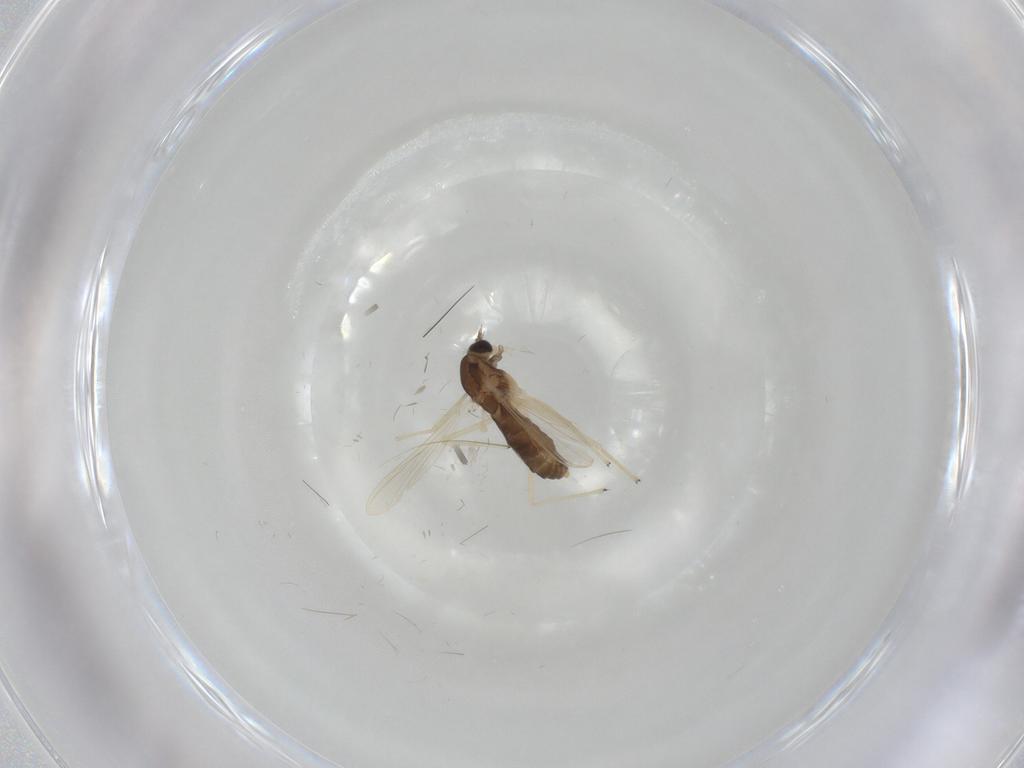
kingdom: Animalia
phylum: Arthropoda
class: Insecta
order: Diptera
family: Chironomidae
